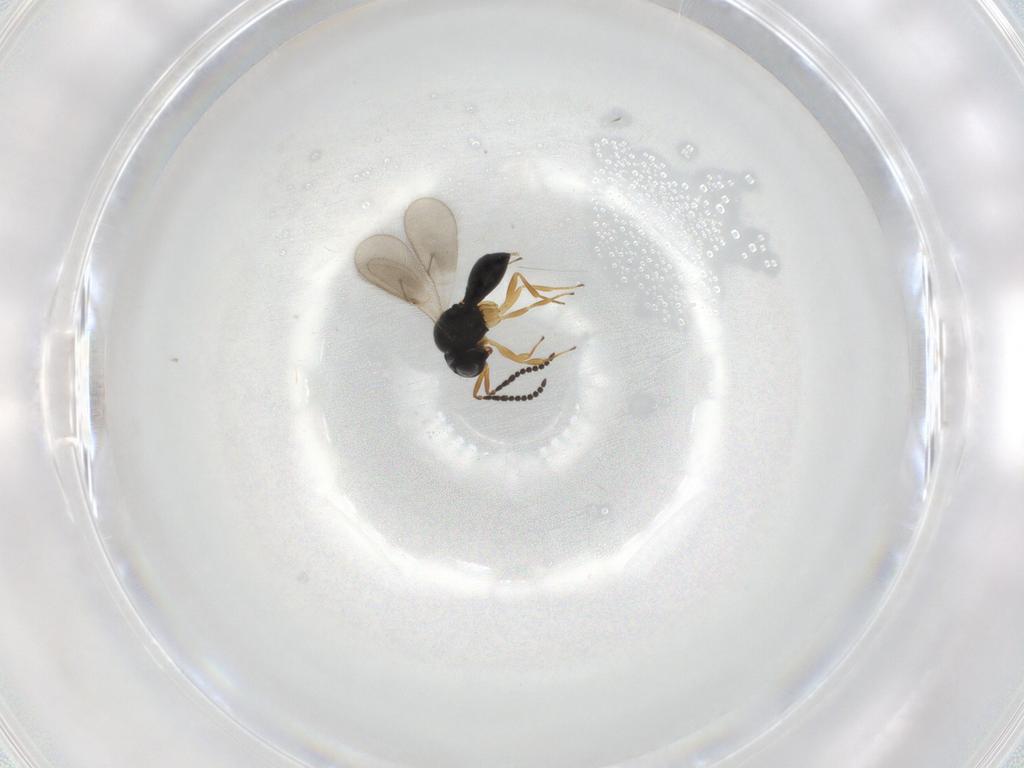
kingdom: Animalia
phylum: Arthropoda
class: Insecta
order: Hymenoptera
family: Scelionidae
